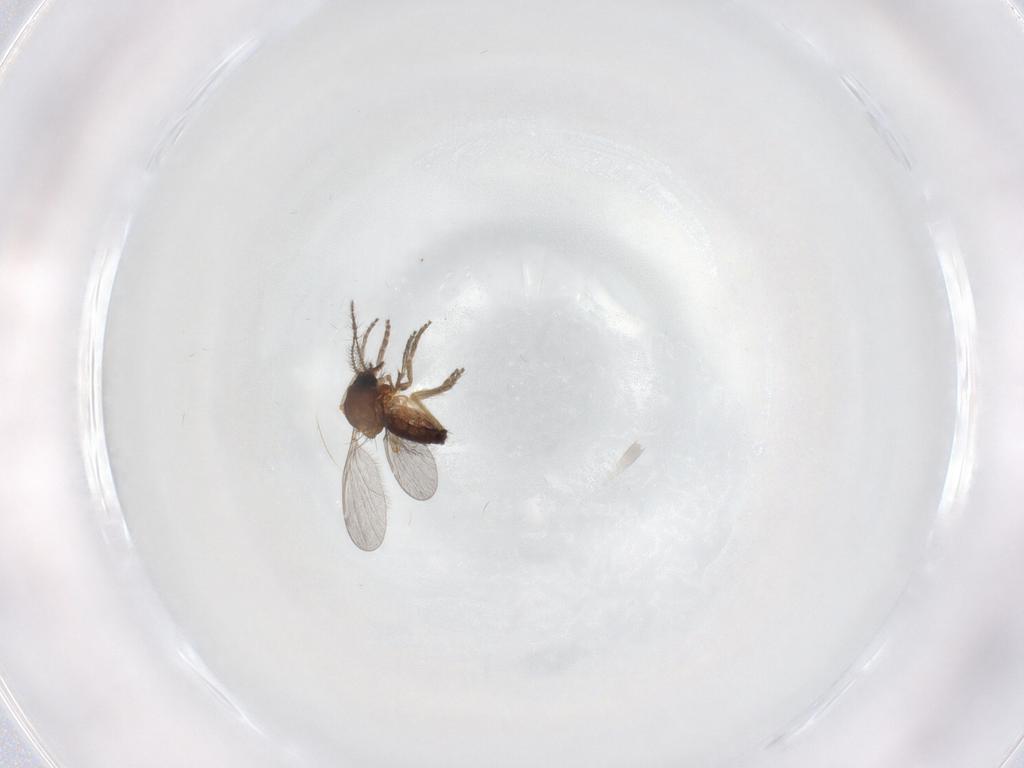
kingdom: Animalia
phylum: Arthropoda
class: Insecta
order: Diptera
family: Ceratopogonidae
